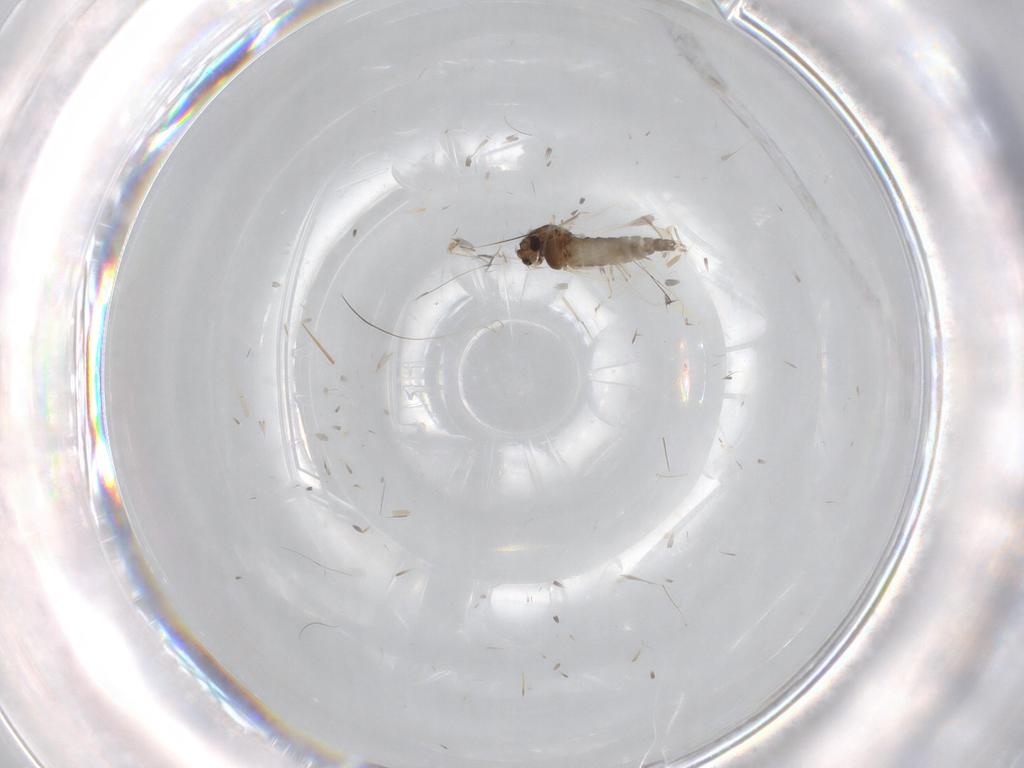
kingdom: Animalia
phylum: Arthropoda
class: Insecta
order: Diptera
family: Chironomidae
